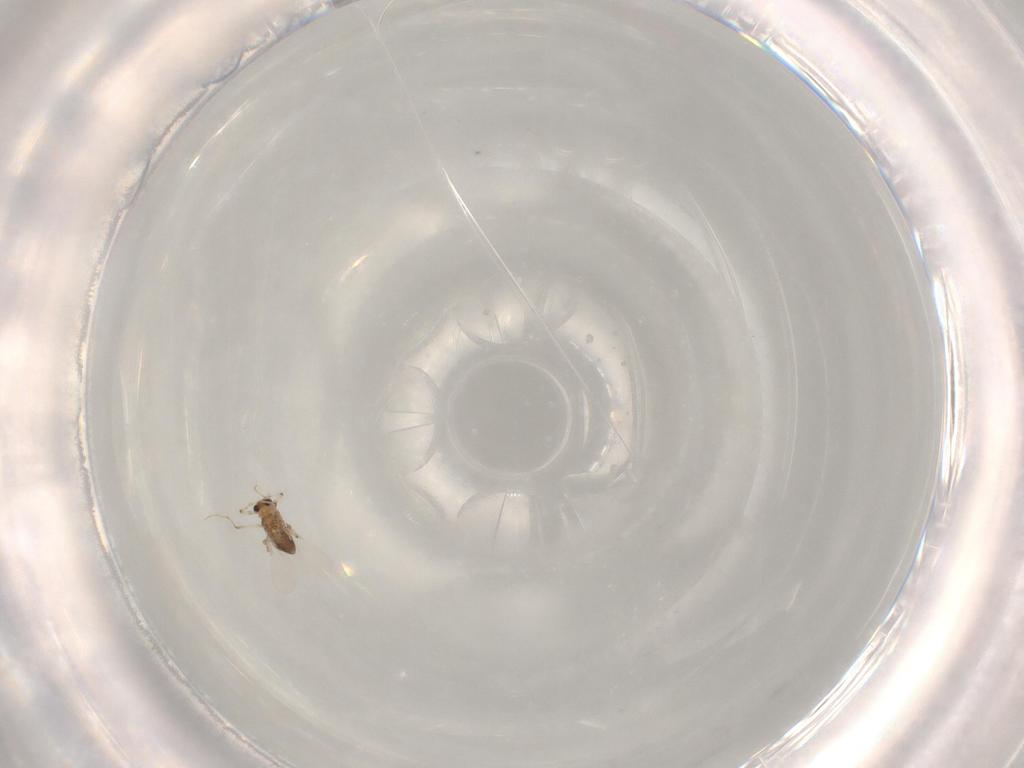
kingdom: Animalia
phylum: Arthropoda
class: Insecta
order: Diptera
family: Chironomidae
